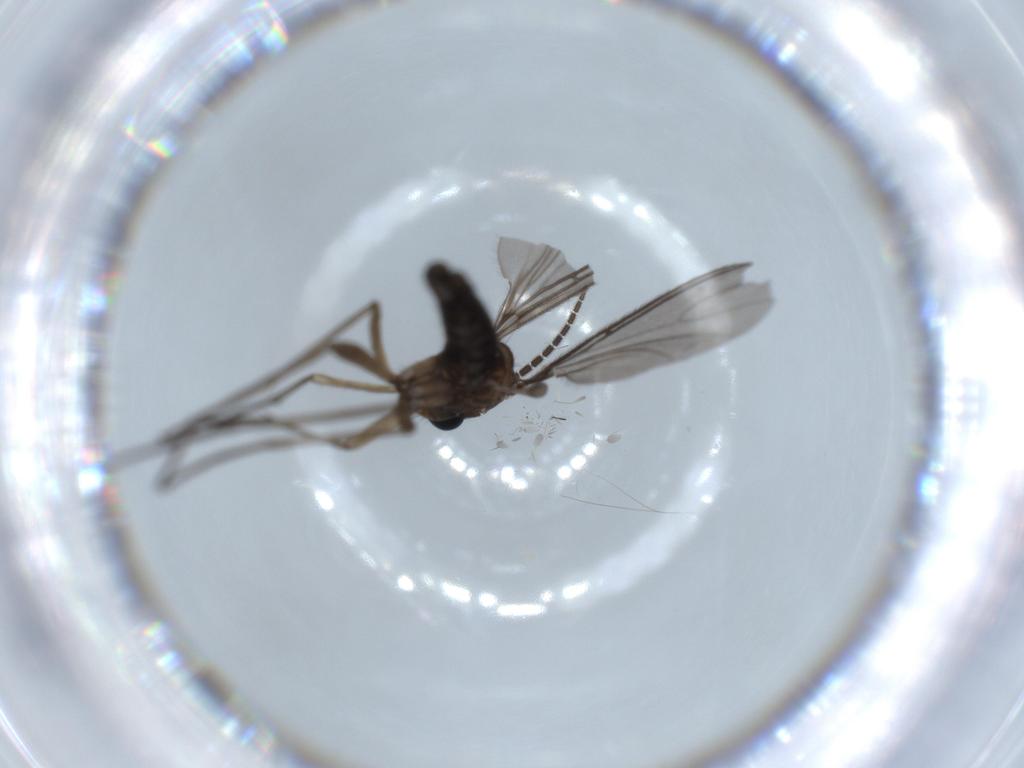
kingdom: Animalia
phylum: Arthropoda
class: Insecta
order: Diptera
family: Sciaridae
